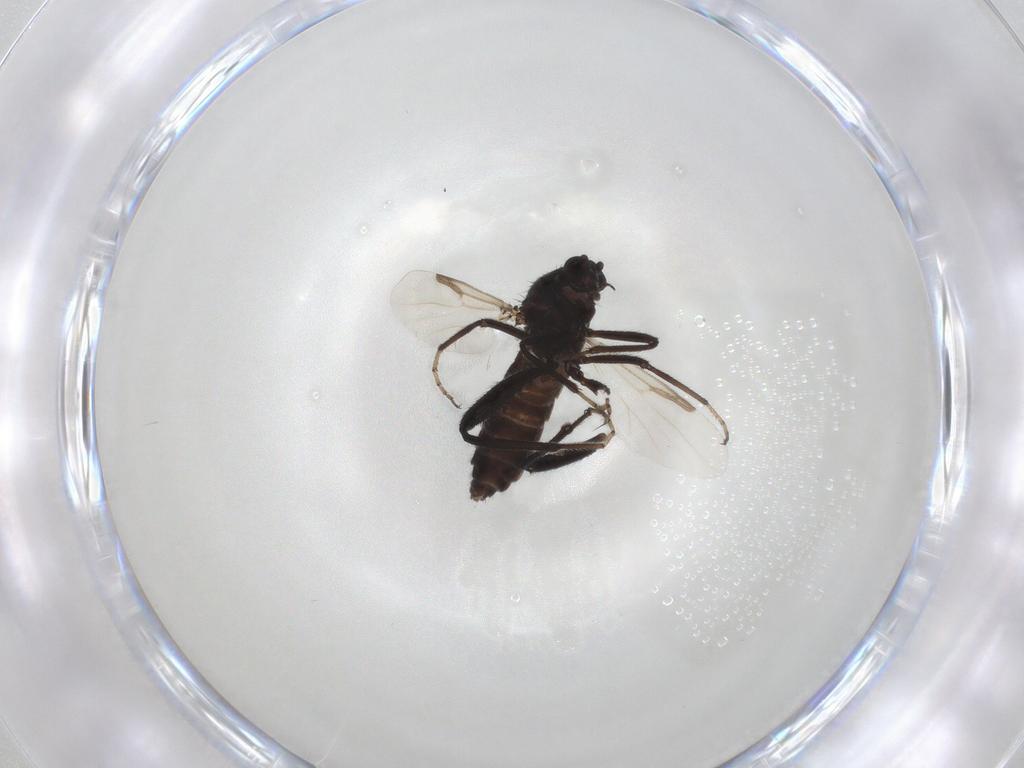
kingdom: Animalia
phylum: Arthropoda
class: Insecta
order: Diptera
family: Ceratopogonidae
